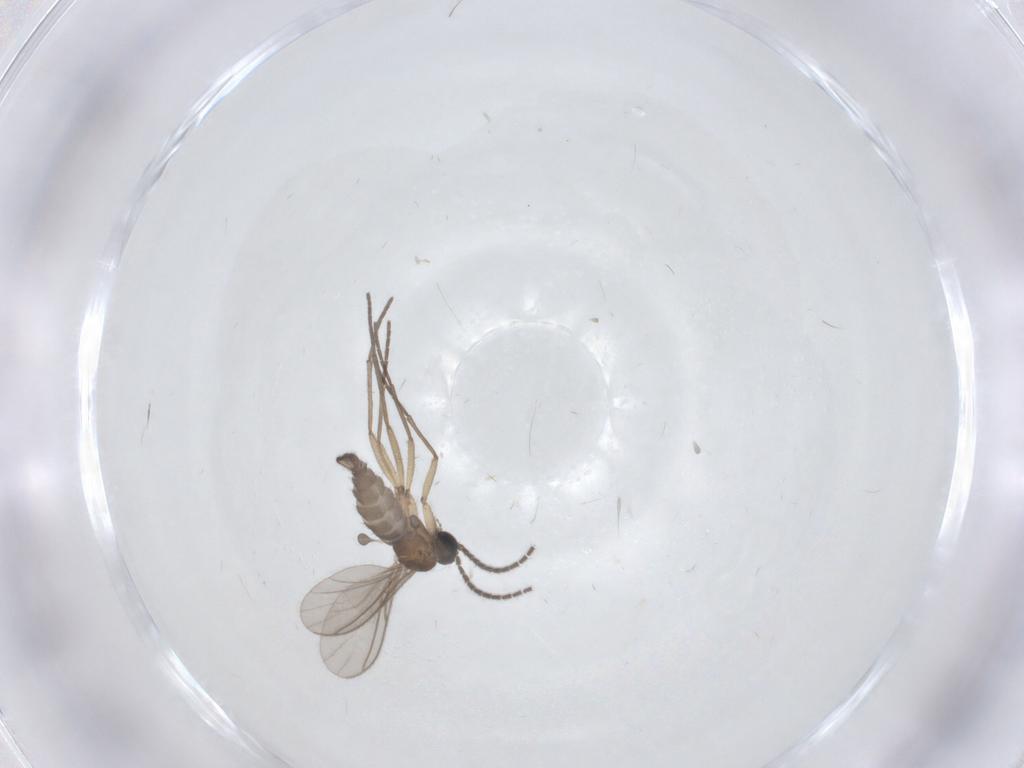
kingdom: Animalia
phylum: Arthropoda
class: Insecta
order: Diptera
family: Sciaridae
